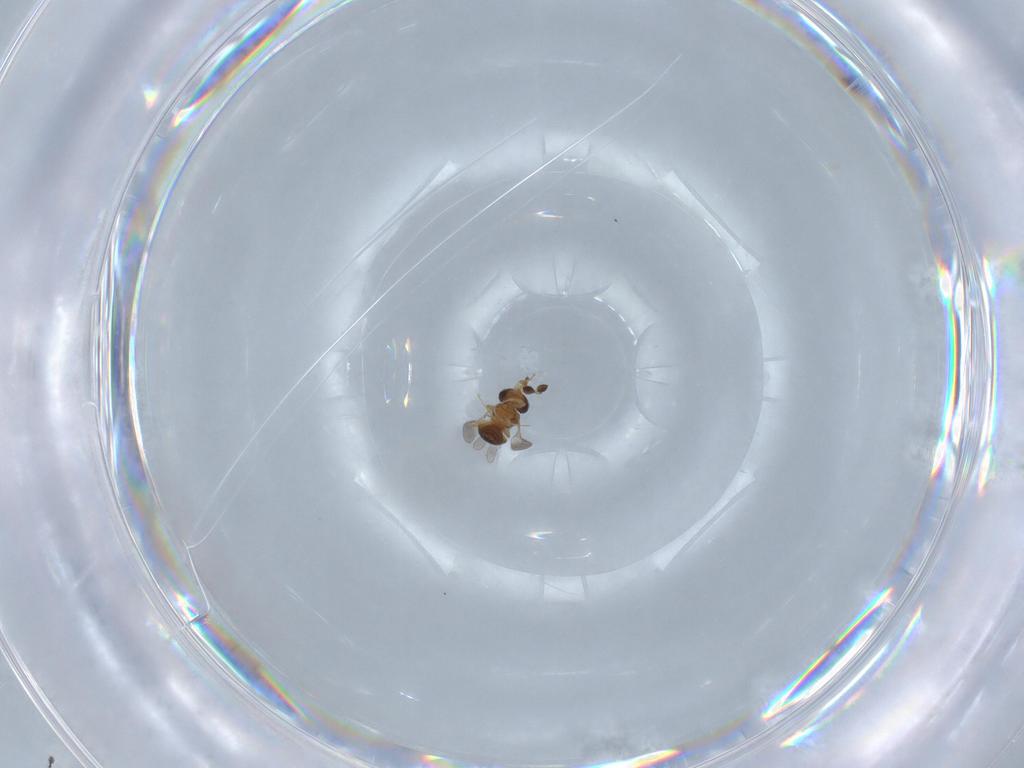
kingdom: Animalia
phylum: Arthropoda
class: Insecta
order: Hymenoptera
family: Scelionidae
